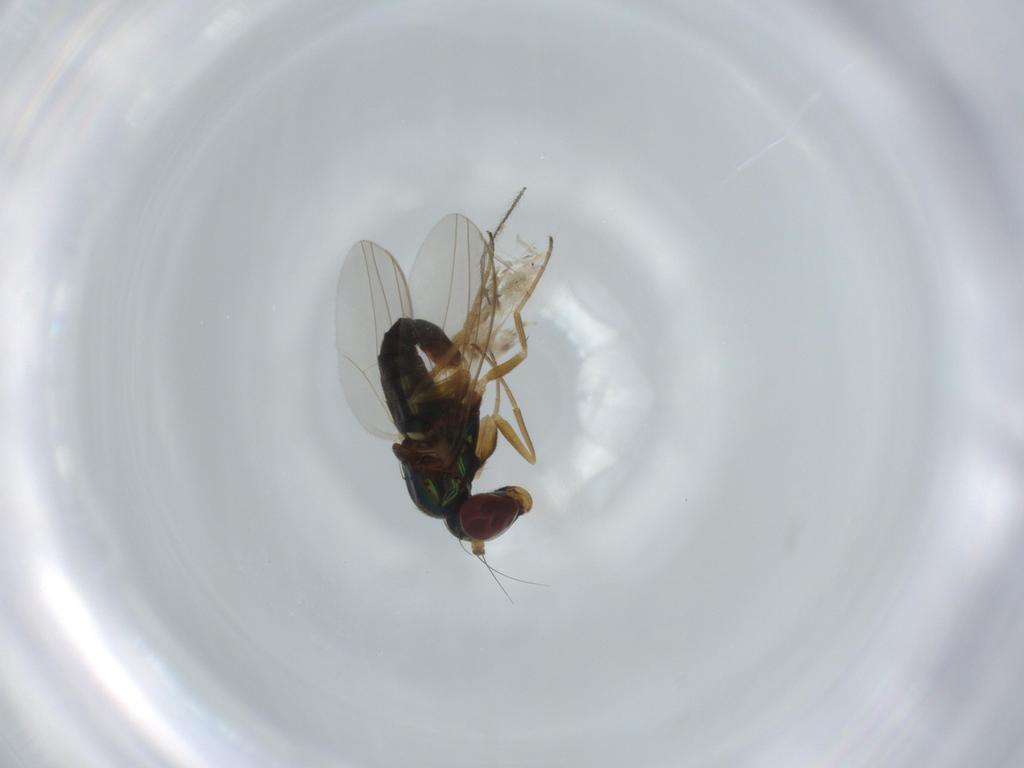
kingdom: Animalia
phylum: Arthropoda
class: Insecta
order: Diptera
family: Dolichopodidae
